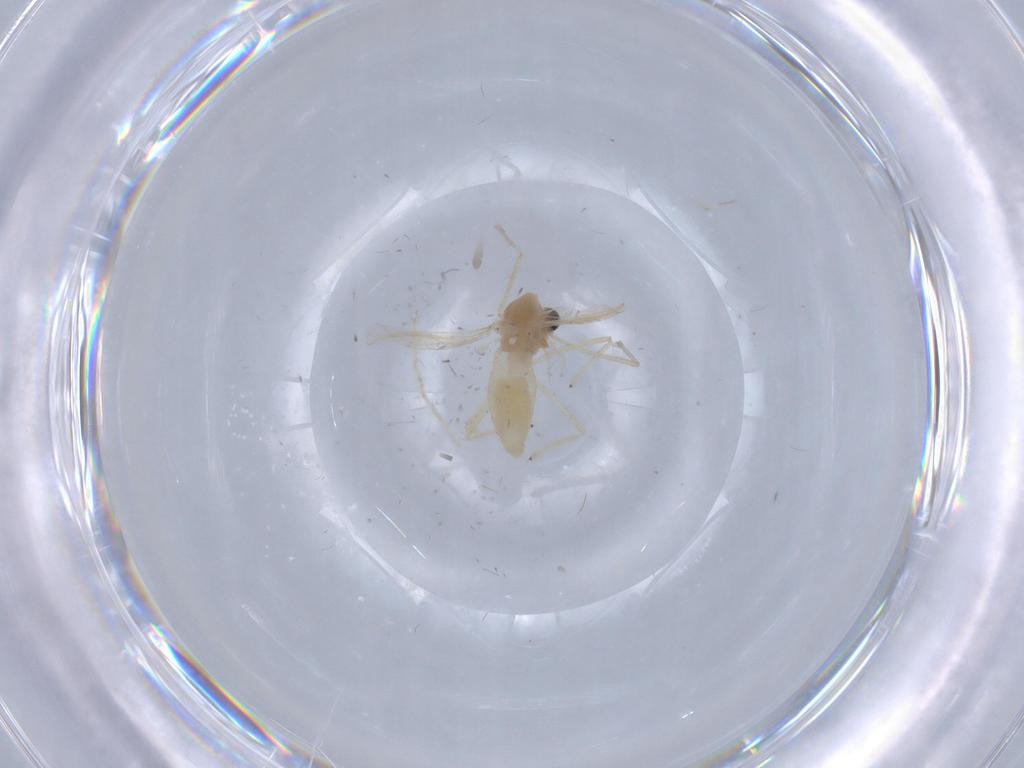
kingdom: Animalia
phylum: Arthropoda
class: Insecta
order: Diptera
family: Chironomidae
